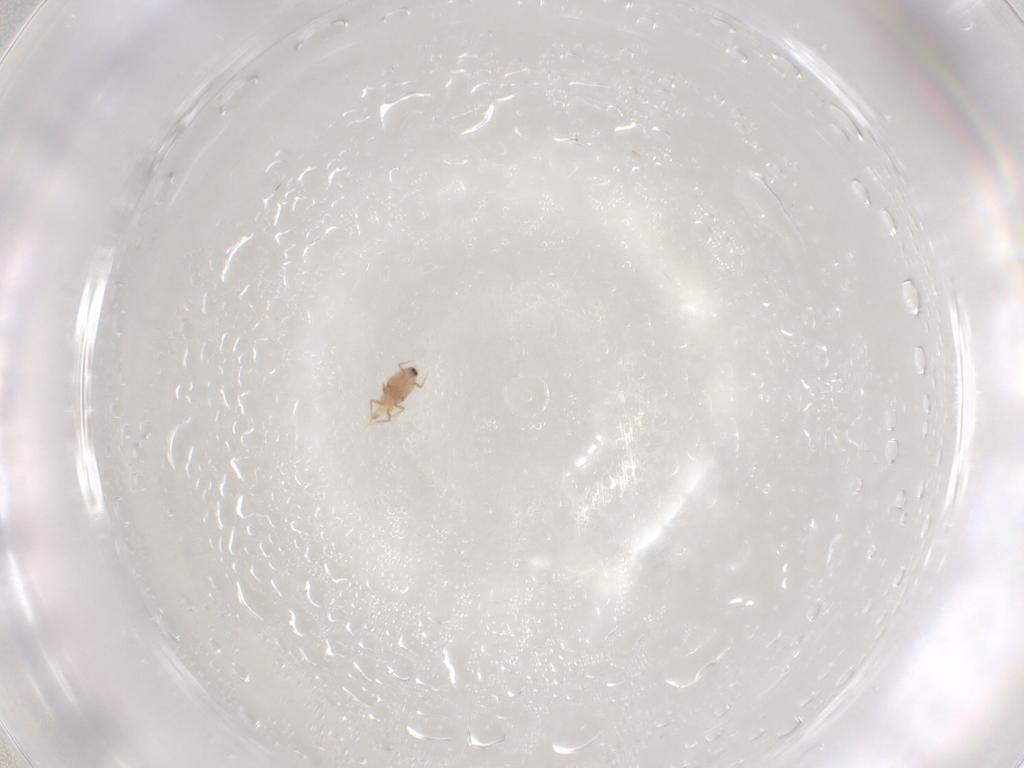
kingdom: Animalia
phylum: Arthropoda
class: Insecta
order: Hemiptera
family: Coccoidea_incertae_sedis
